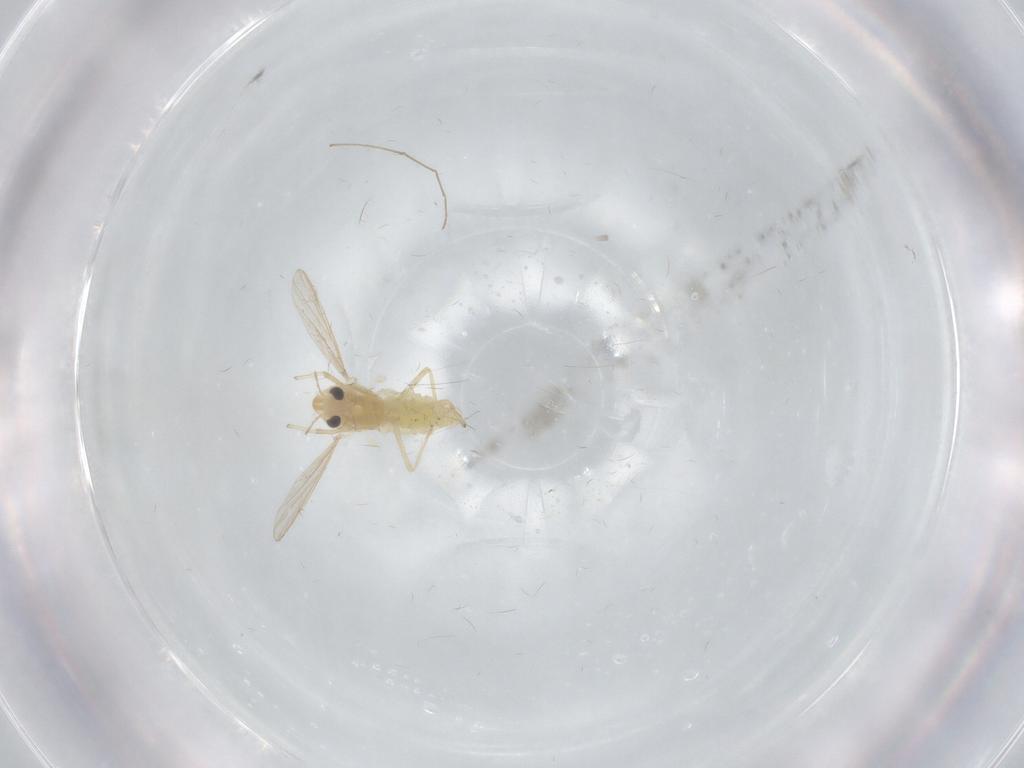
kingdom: Animalia
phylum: Arthropoda
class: Insecta
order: Diptera
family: Chironomidae
